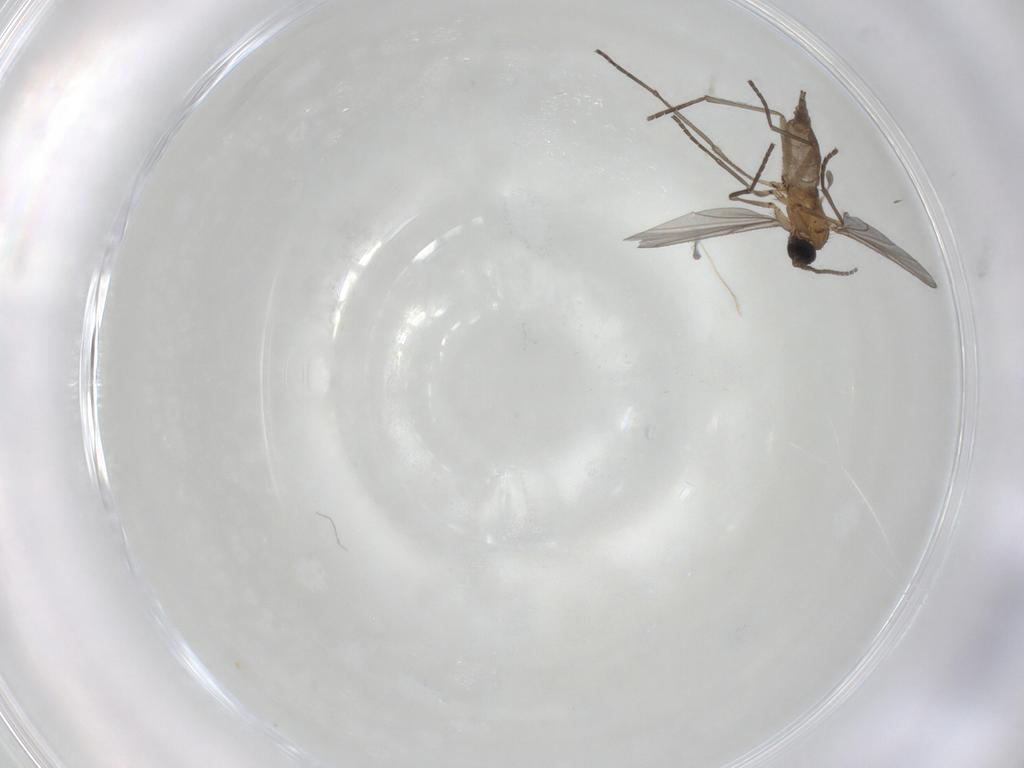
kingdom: Animalia
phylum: Arthropoda
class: Insecta
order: Diptera
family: Sciaridae
